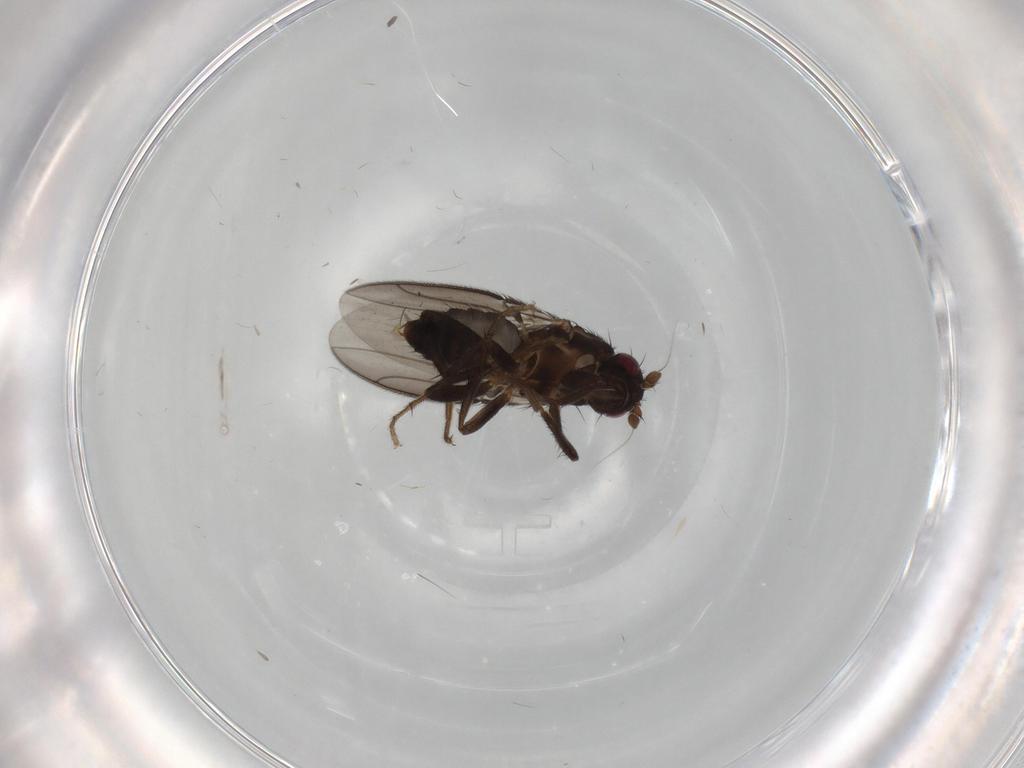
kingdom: Animalia
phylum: Arthropoda
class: Insecta
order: Diptera
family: Sphaeroceridae
